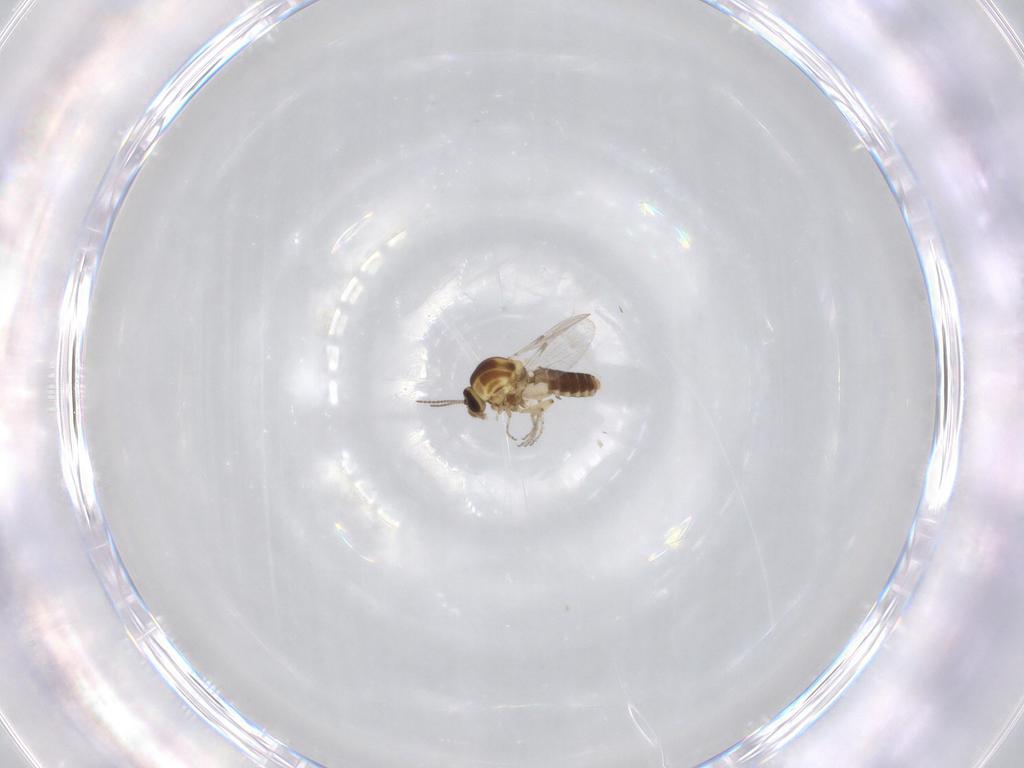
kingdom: Animalia
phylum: Arthropoda
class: Insecta
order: Diptera
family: Ceratopogonidae
